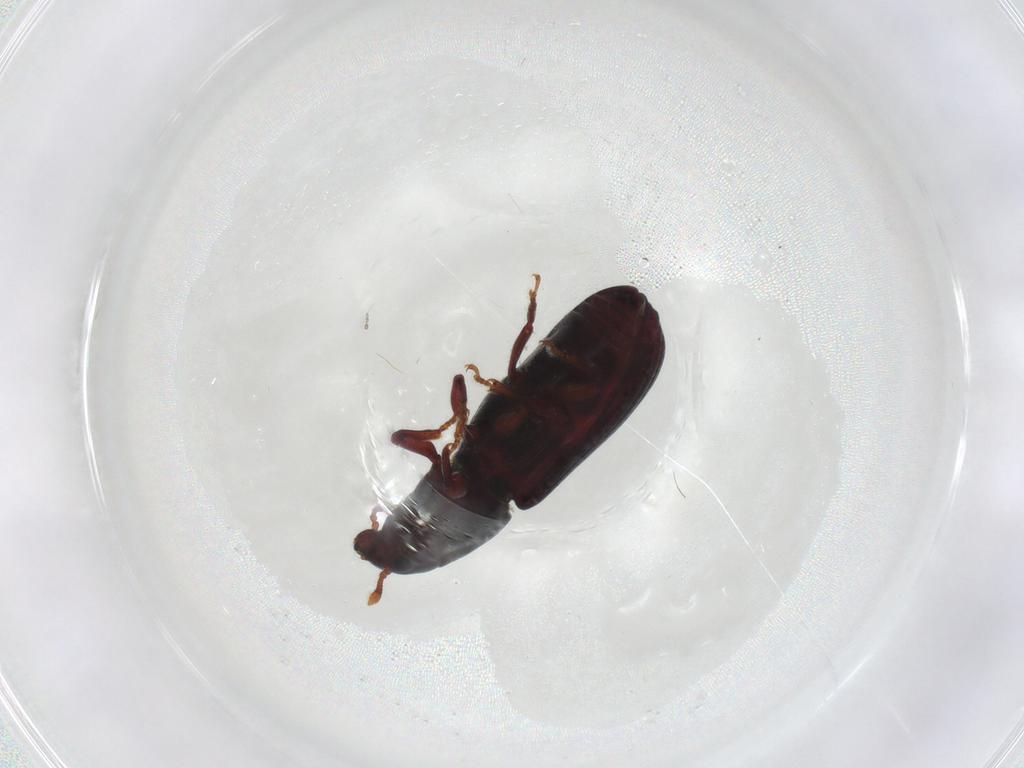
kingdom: Animalia
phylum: Arthropoda
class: Insecta
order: Coleoptera
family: Curculionidae
